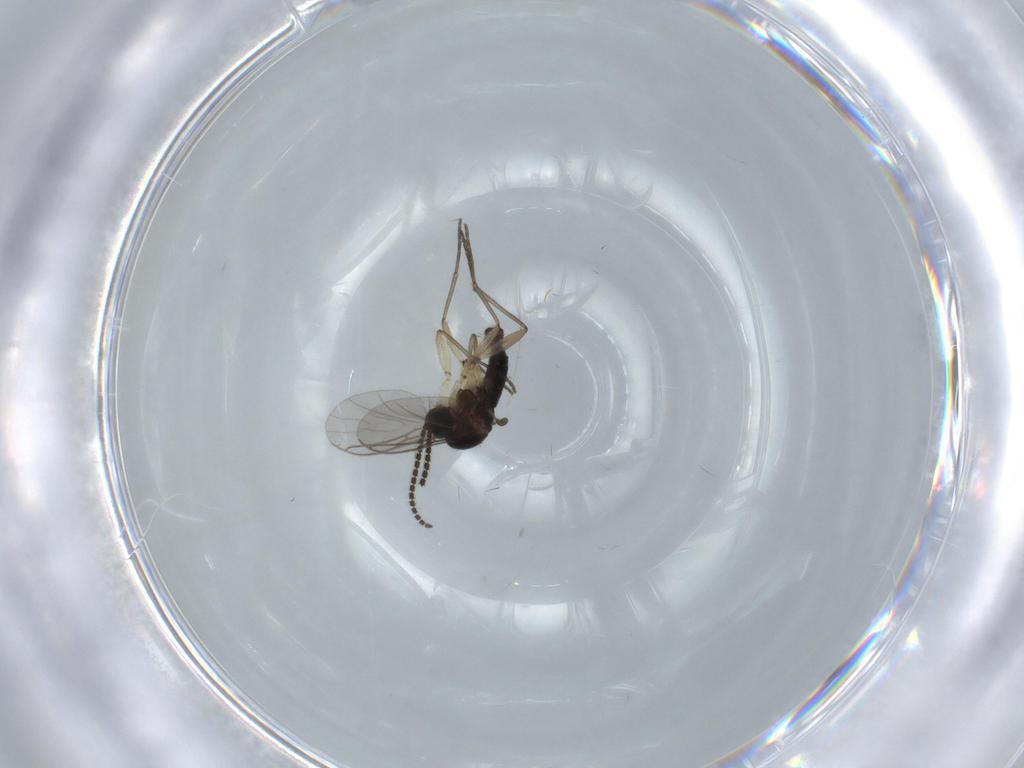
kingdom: Animalia
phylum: Arthropoda
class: Insecta
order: Diptera
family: Sciaridae
